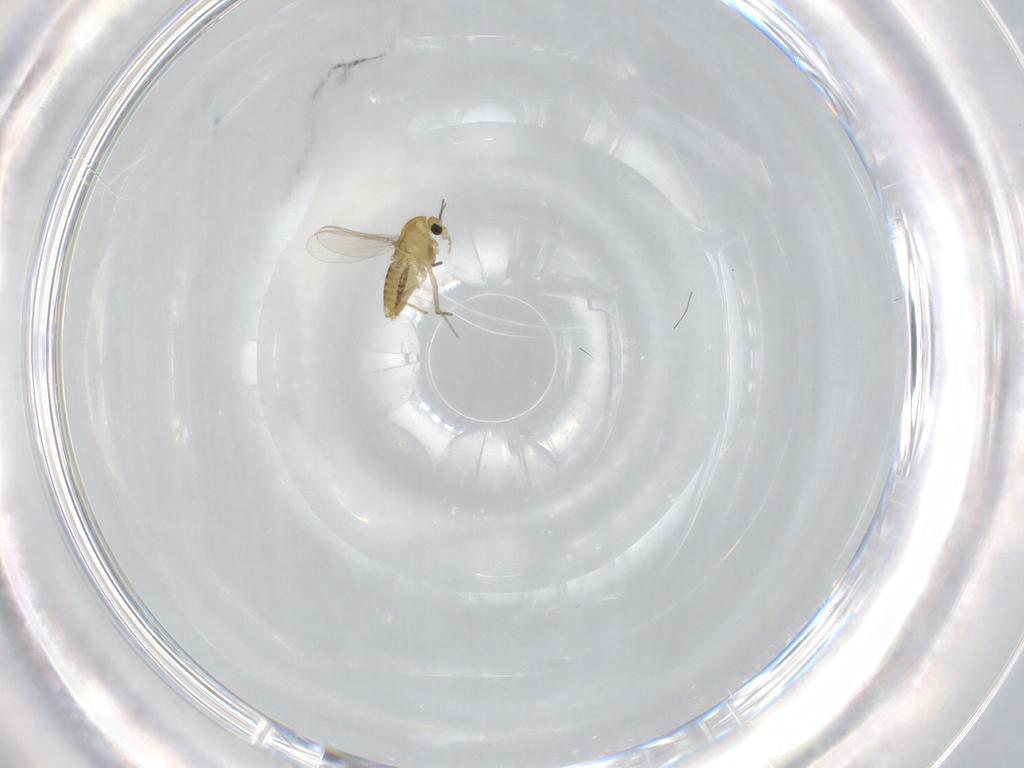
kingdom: Animalia
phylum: Arthropoda
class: Insecta
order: Diptera
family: Chironomidae
